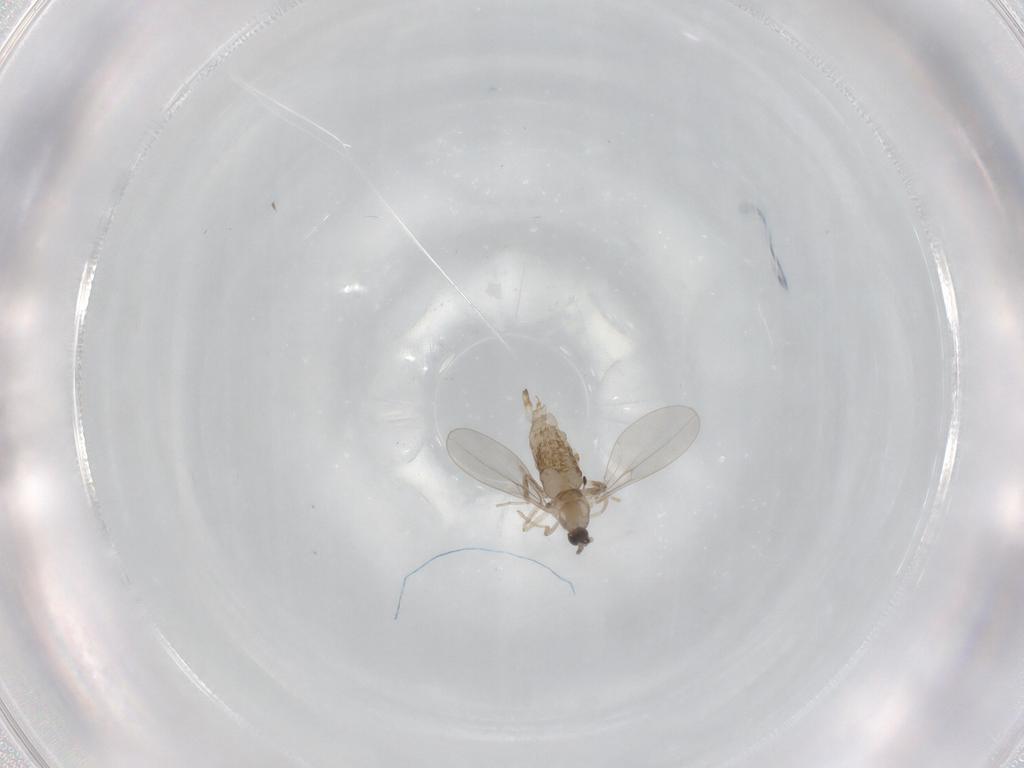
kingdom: Animalia
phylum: Arthropoda
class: Insecta
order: Diptera
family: Cecidomyiidae
